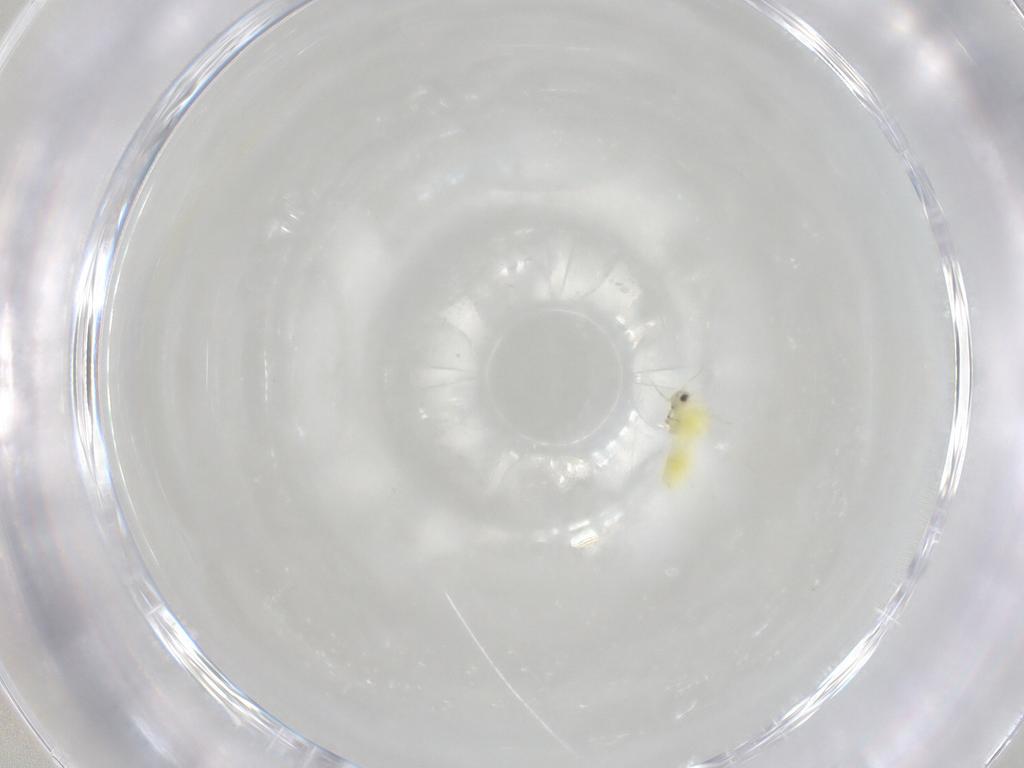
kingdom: Animalia
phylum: Arthropoda
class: Insecta
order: Hemiptera
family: Aleyrodidae
